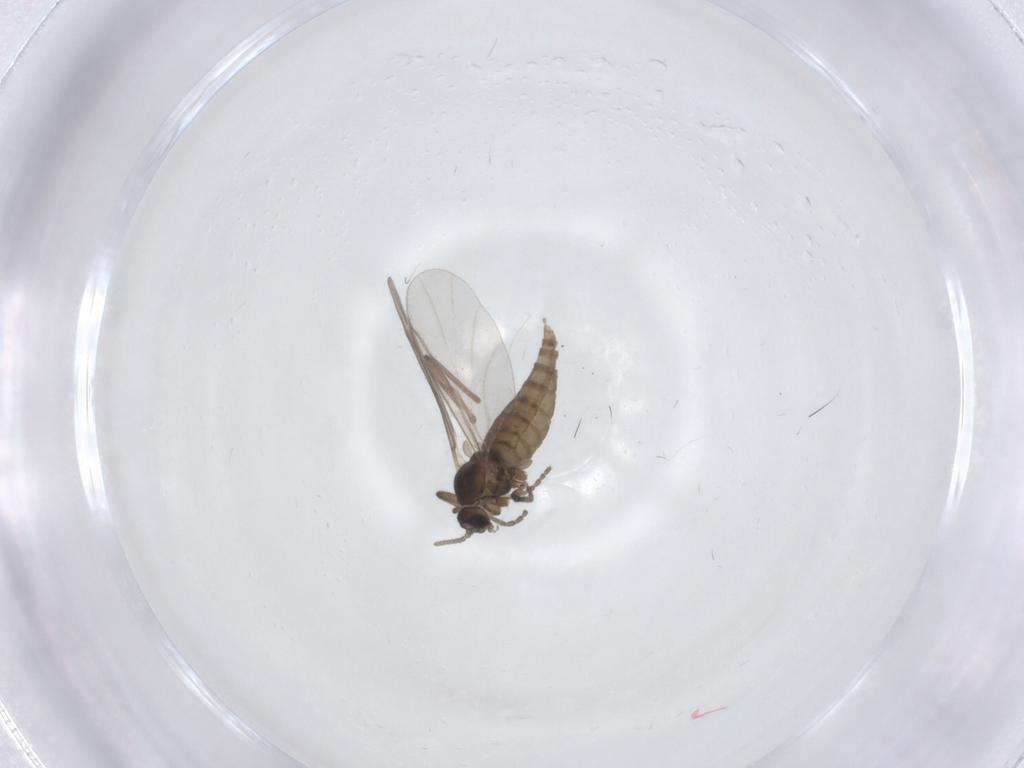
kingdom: Animalia
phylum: Arthropoda
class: Insecta
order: Diptera
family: Cecidomyiidae
